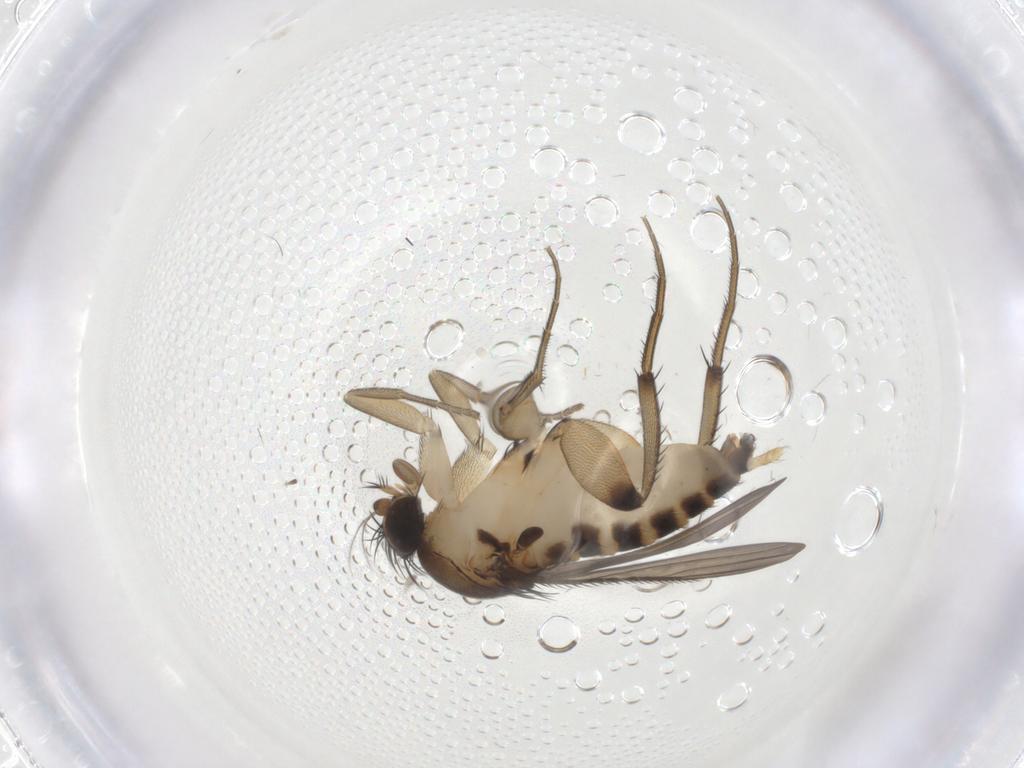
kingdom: Animalia
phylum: Arthropoda
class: Insecta
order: Diptera
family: Phoridae
